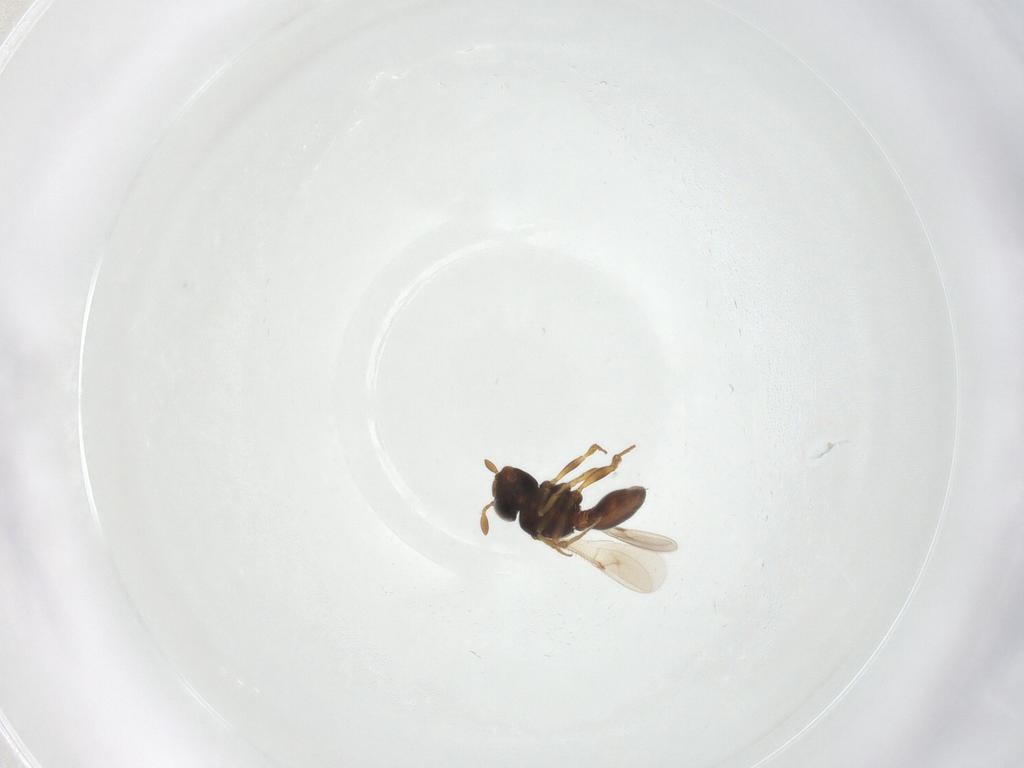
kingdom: Animalia
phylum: Arthropoda
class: Insecta
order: Hymenoptera
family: Scelionidae
